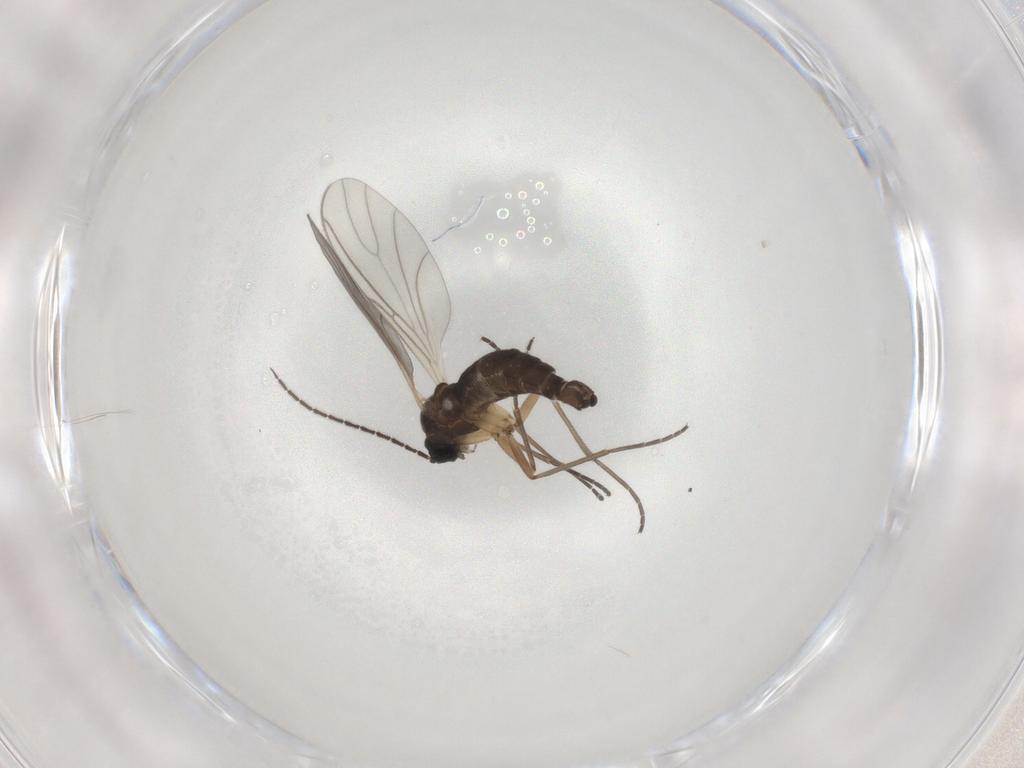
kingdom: Animalia
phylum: Arthropoda
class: Insecta
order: Diptera
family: Sciaridae
